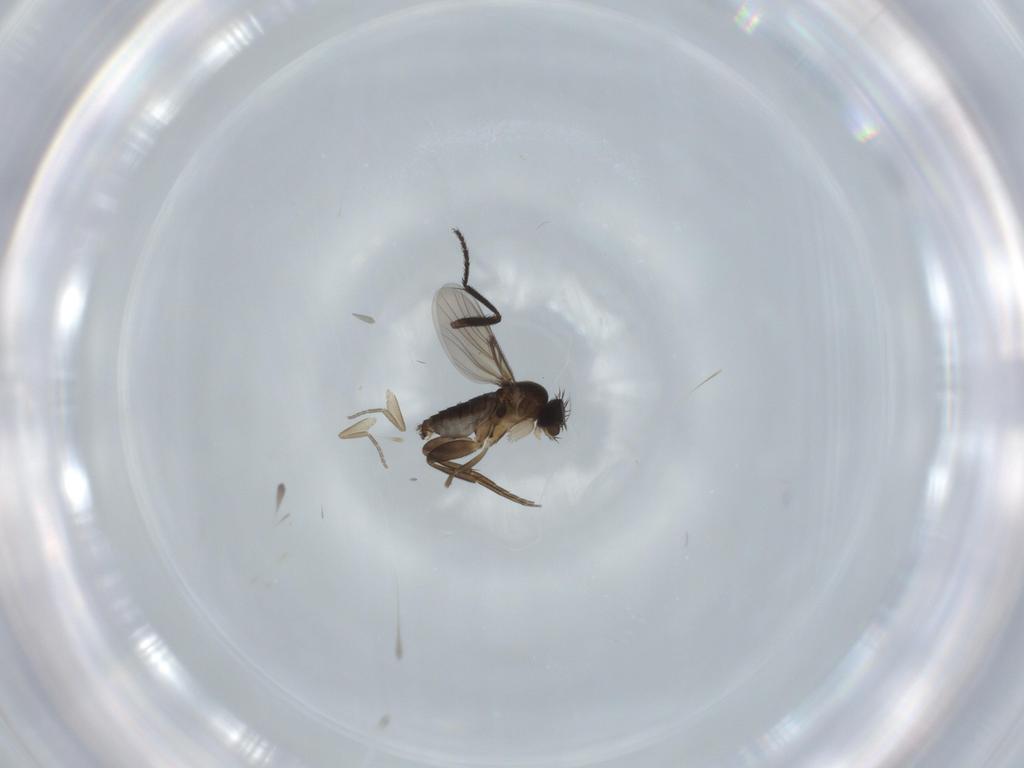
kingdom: Animalia
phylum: Arthropoda
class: Insecta
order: Diptera
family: Phoridae
